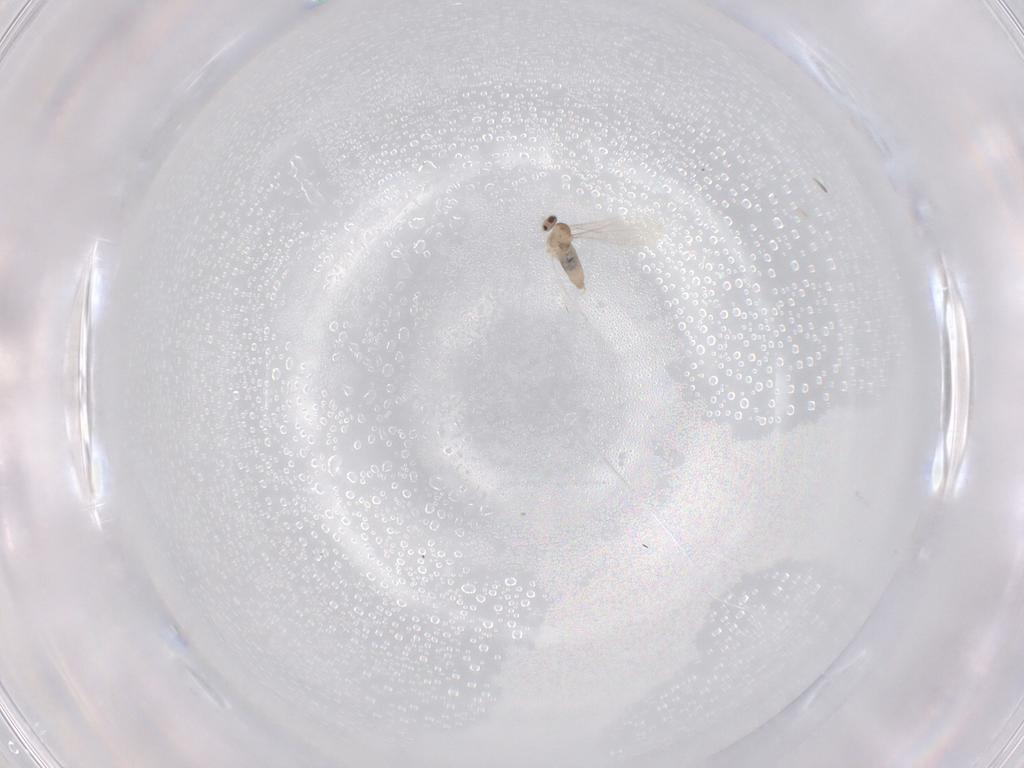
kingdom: Animalia
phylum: Arthropoda
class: Insecta
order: Diptera
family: Cecidomyiidae
